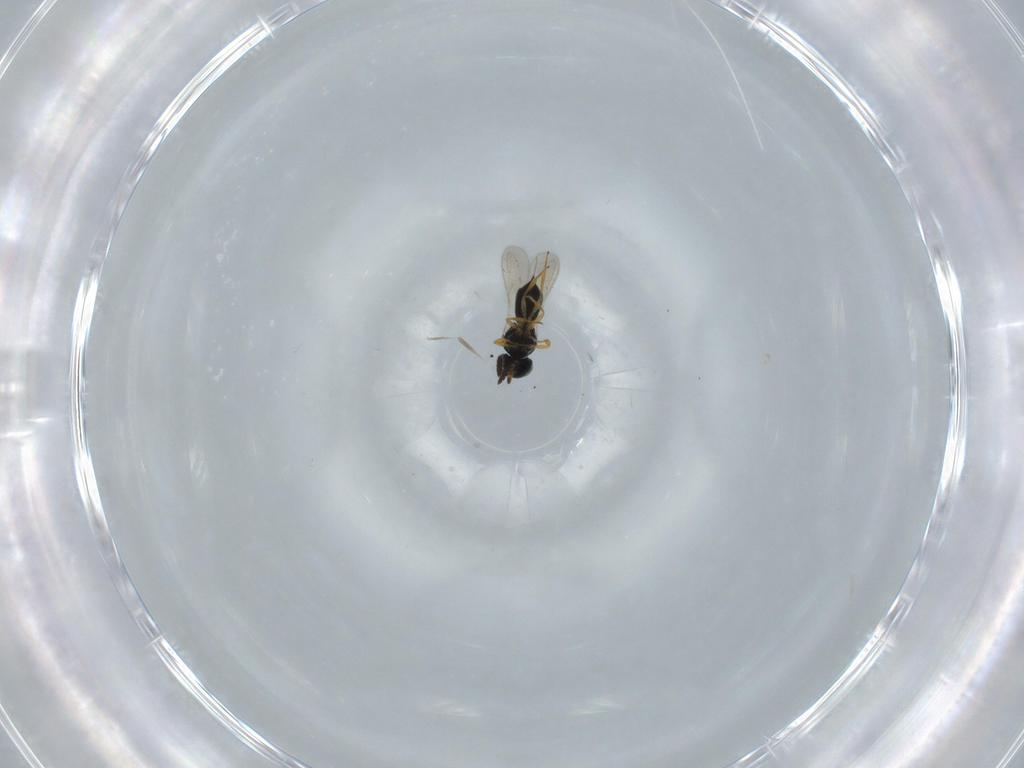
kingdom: Animalia
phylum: Arthropoda
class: Insecta
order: Hymenoptera
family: Scelionidae
